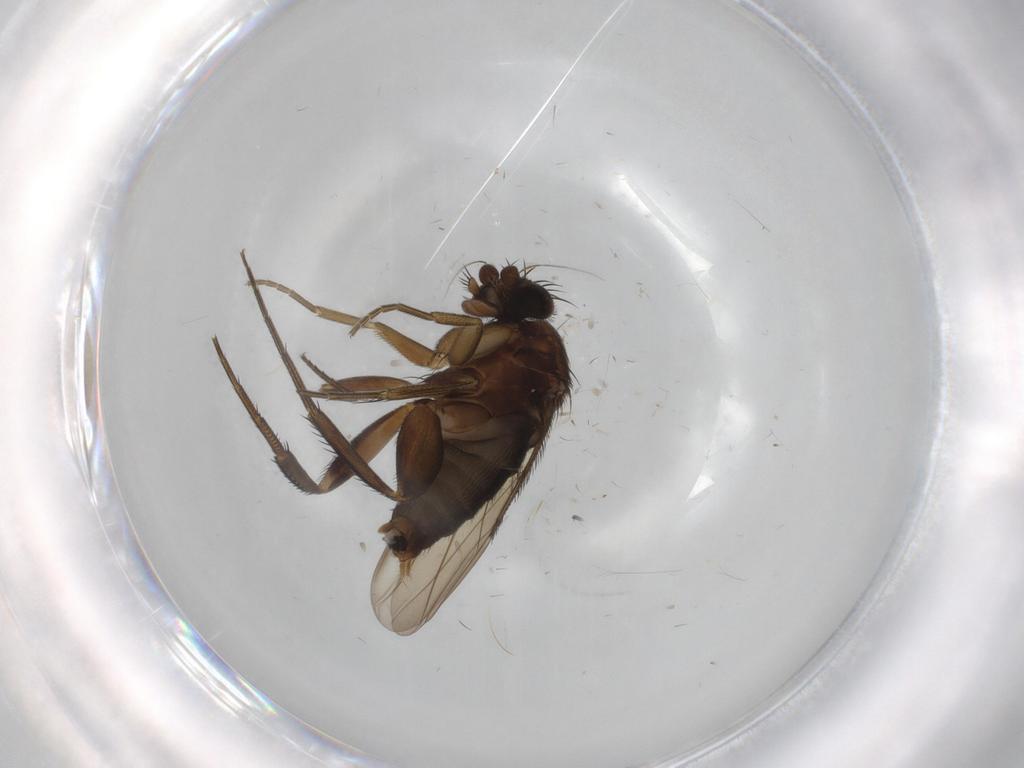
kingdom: Animalia
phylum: Arthropoda
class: Insecta
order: Diptera
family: Phoridae
